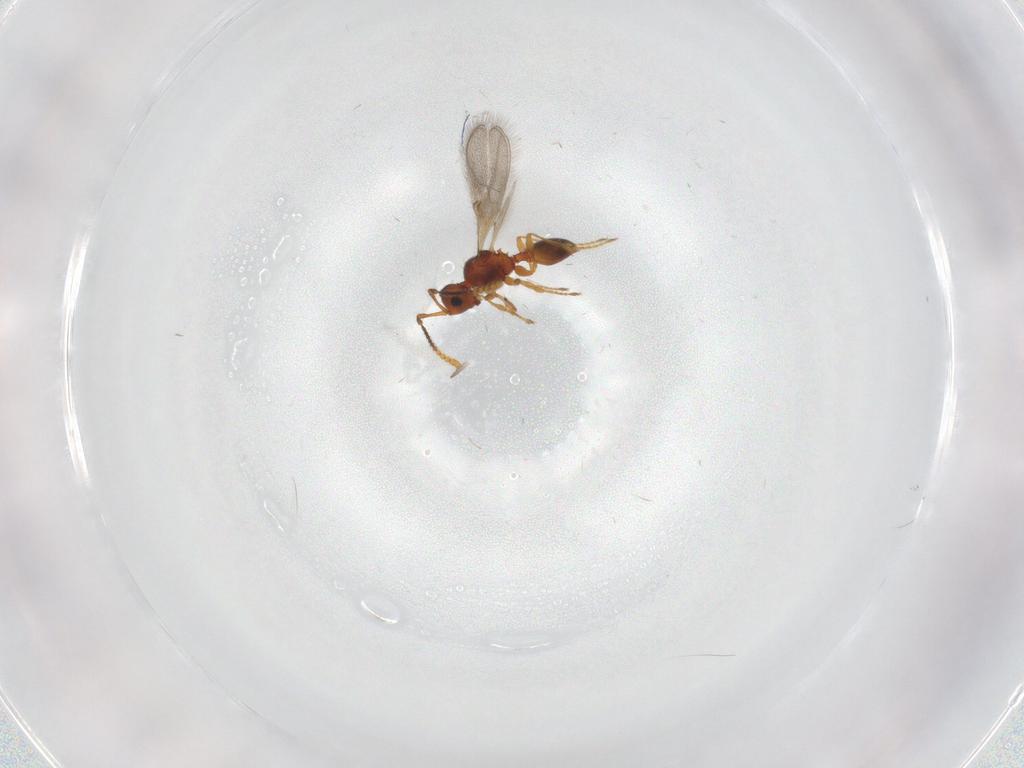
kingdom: Animalia
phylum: Arthropoda
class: Insecta
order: Hymenoptera
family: Diapriidae
